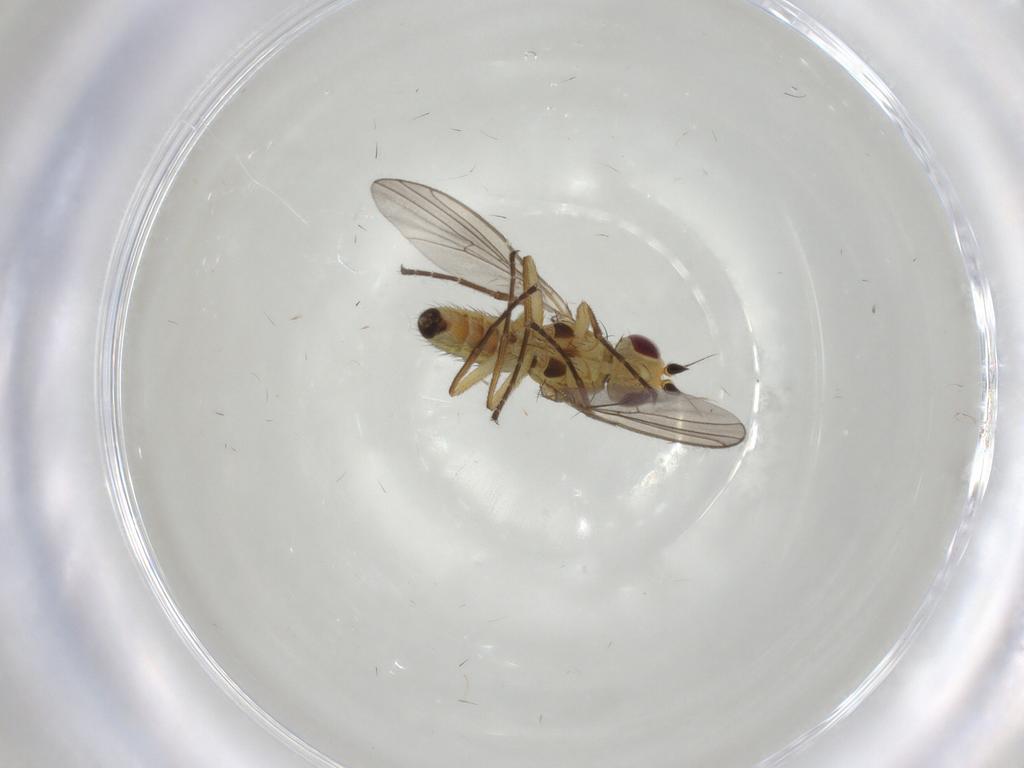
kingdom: Animalia
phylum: Arthropoda
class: Insecta
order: Diptera
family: Agromyzidae
